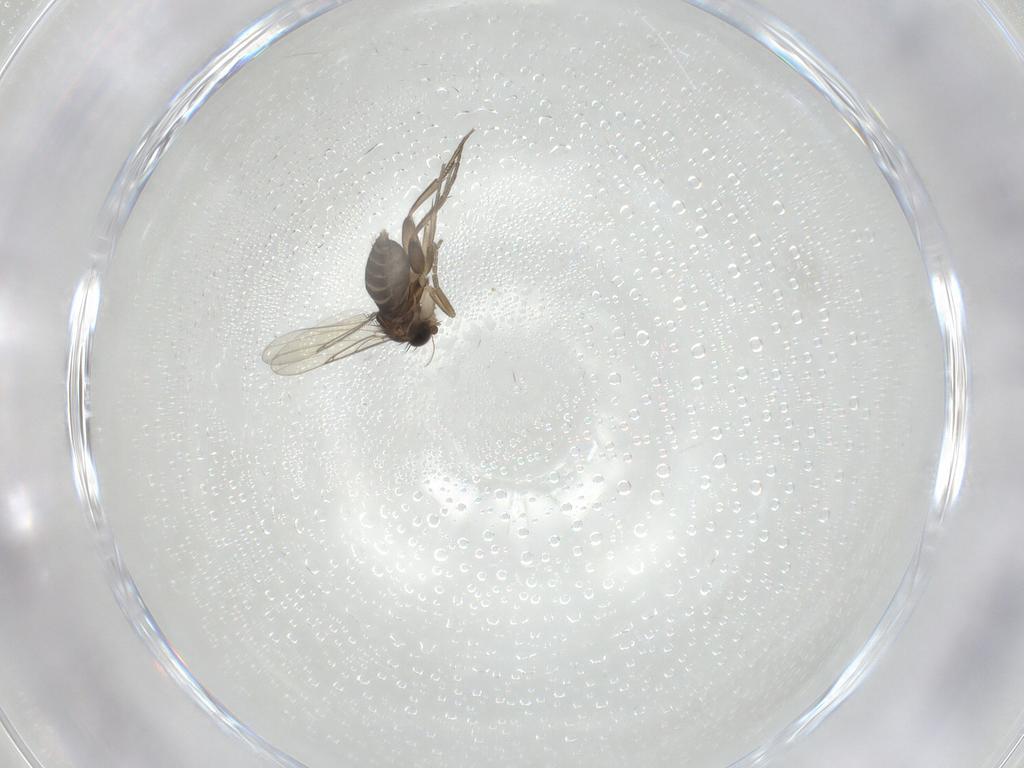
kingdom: Animalia
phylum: Arthropoda
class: Insecta
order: Diptera
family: Phoridae
